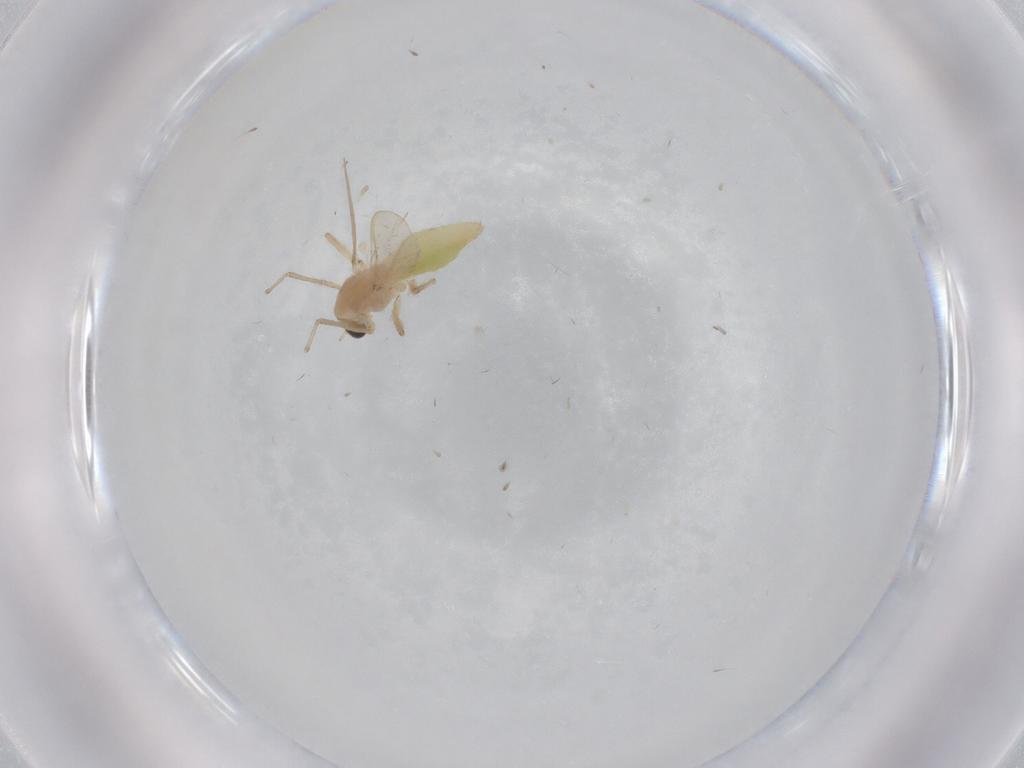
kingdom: Animalia
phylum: Arthropoda
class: Insecta
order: Diptera
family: Chironomidae
